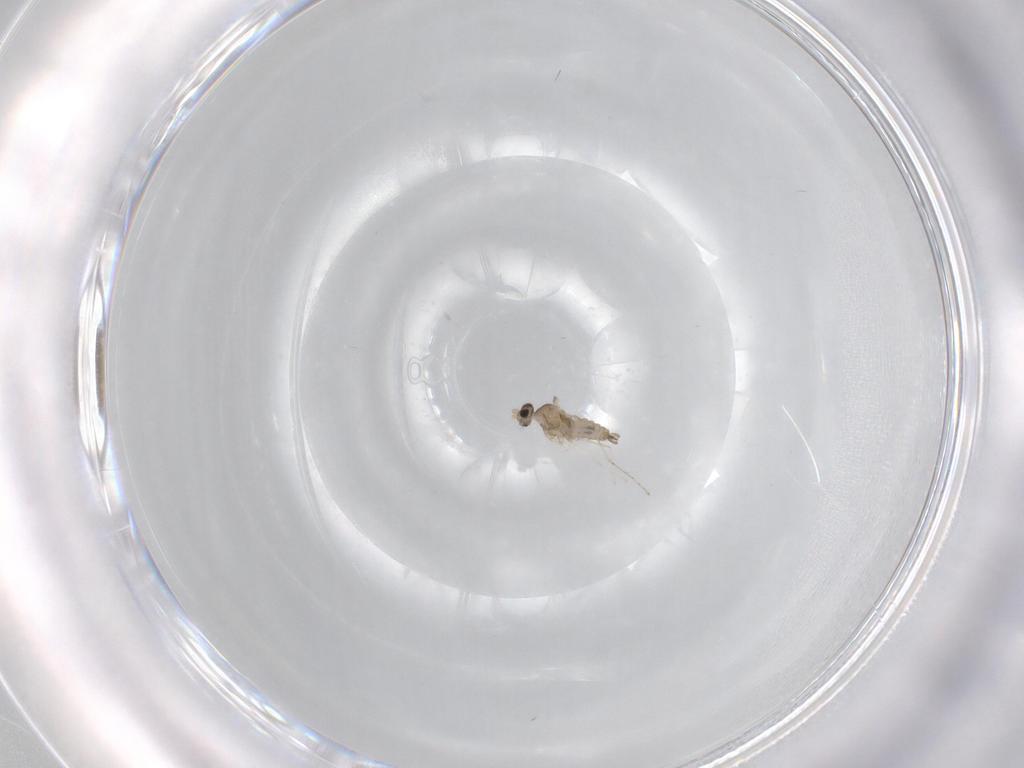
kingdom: Animalia
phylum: Arthropoda
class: Insecta
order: Diptera
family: Cecidomyiidae
